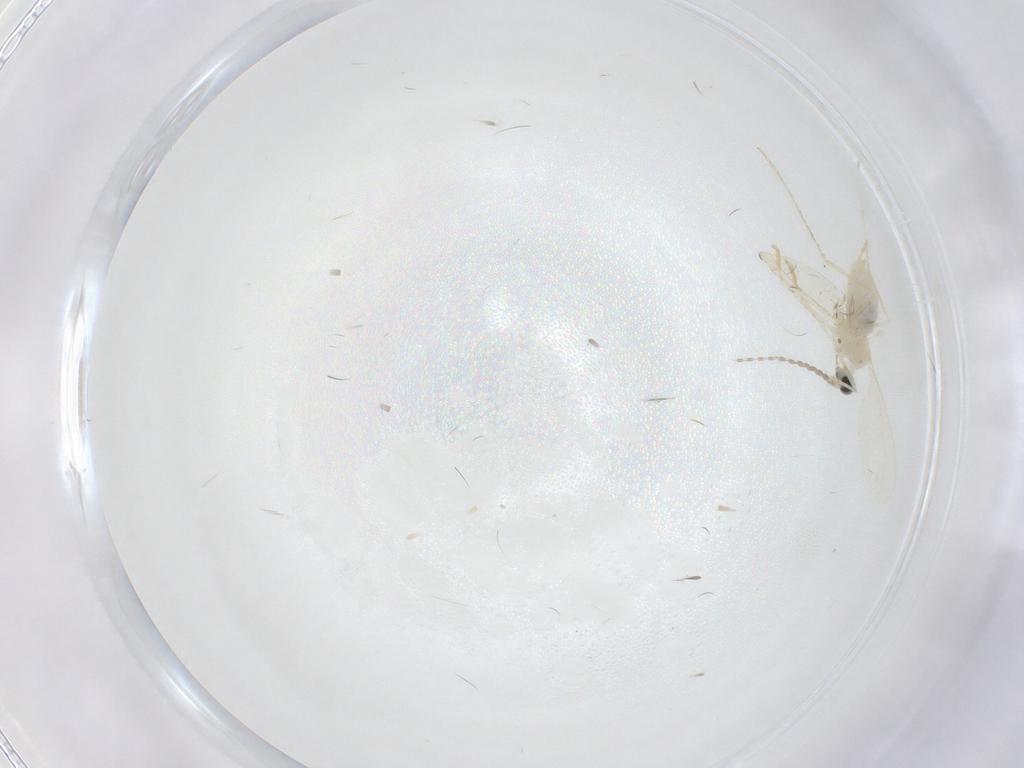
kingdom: Animalia
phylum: Arthropoda
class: Insecta
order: Diptera
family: Cecidomyiidae
